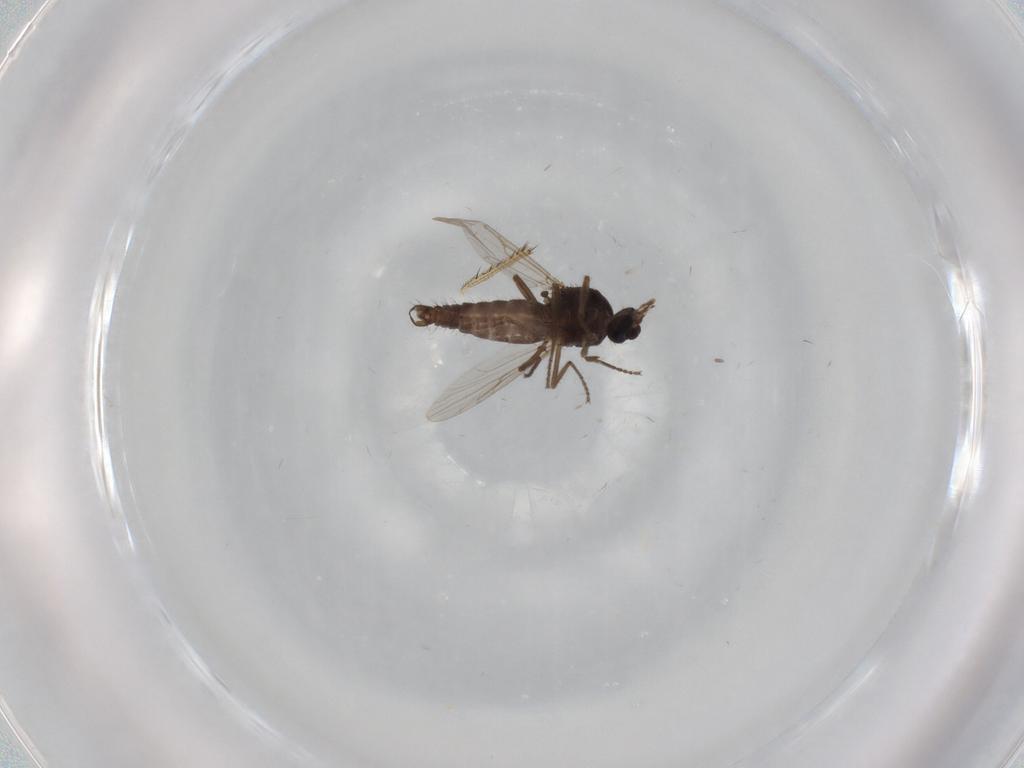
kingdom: Animalia
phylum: Arthropoda
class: Insecta
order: Diptera
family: Ceratopogonidae
